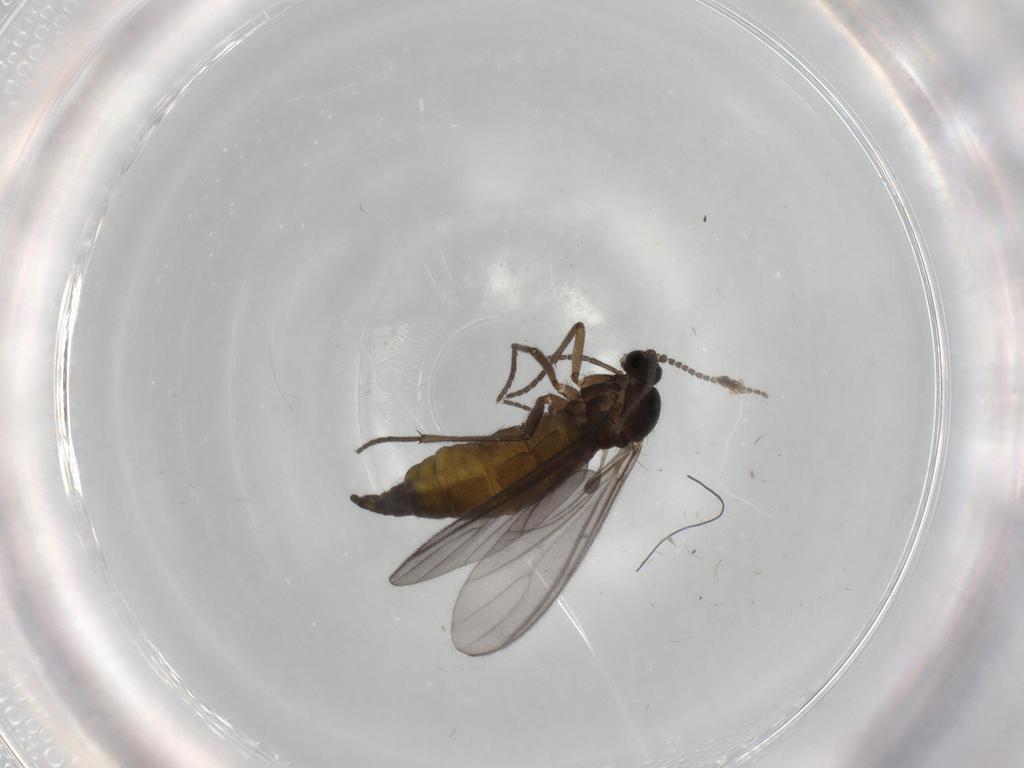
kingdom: Animalia
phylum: Arthropoda
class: Insecta
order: Diptera
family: Sciaridae
